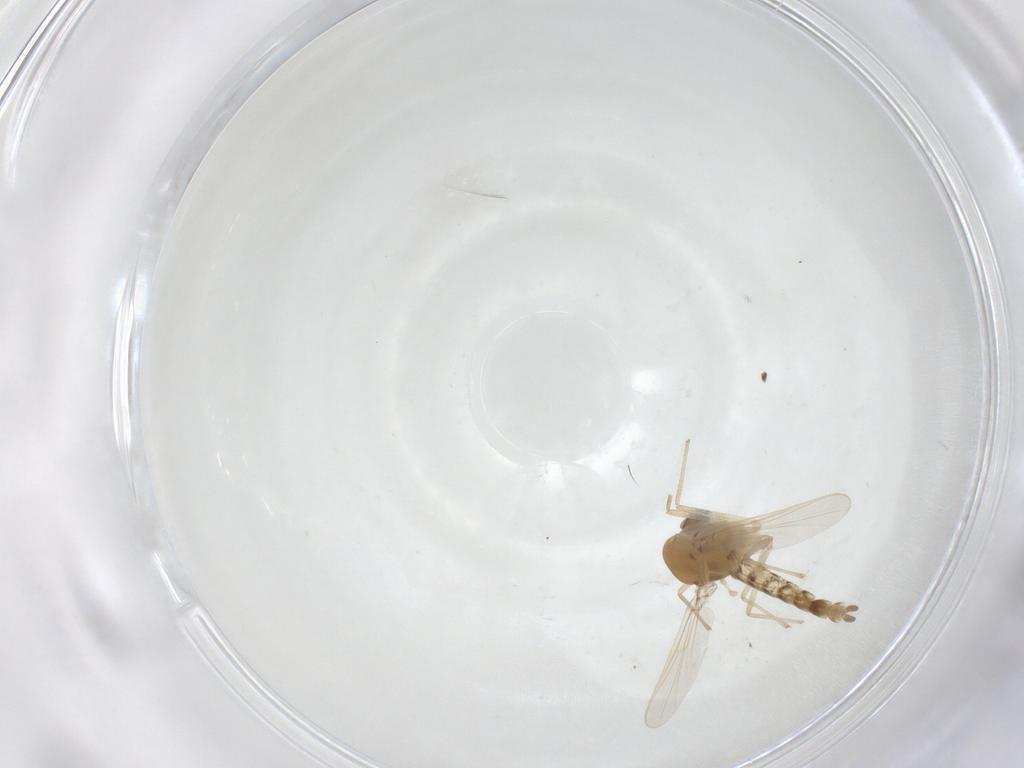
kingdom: Animalia
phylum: Arthropoda
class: Insecta
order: Diptera
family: Chironomidae
